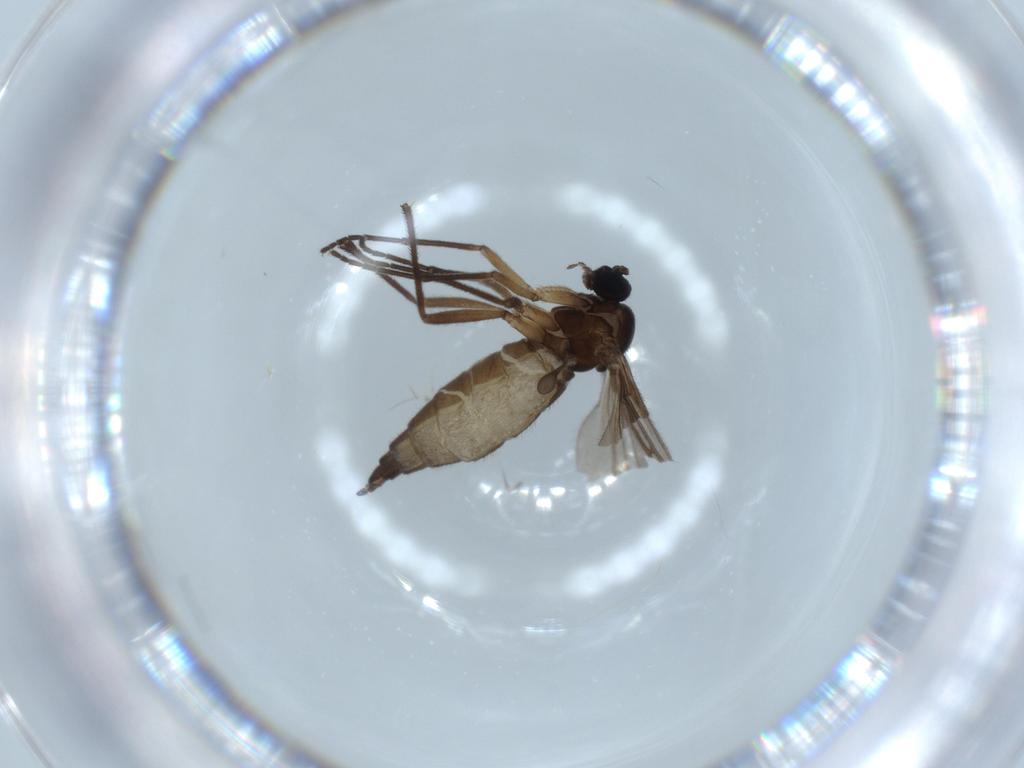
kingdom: Animalia
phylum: Arthropoda
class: Insecta
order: Diptera
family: Sciaridae
